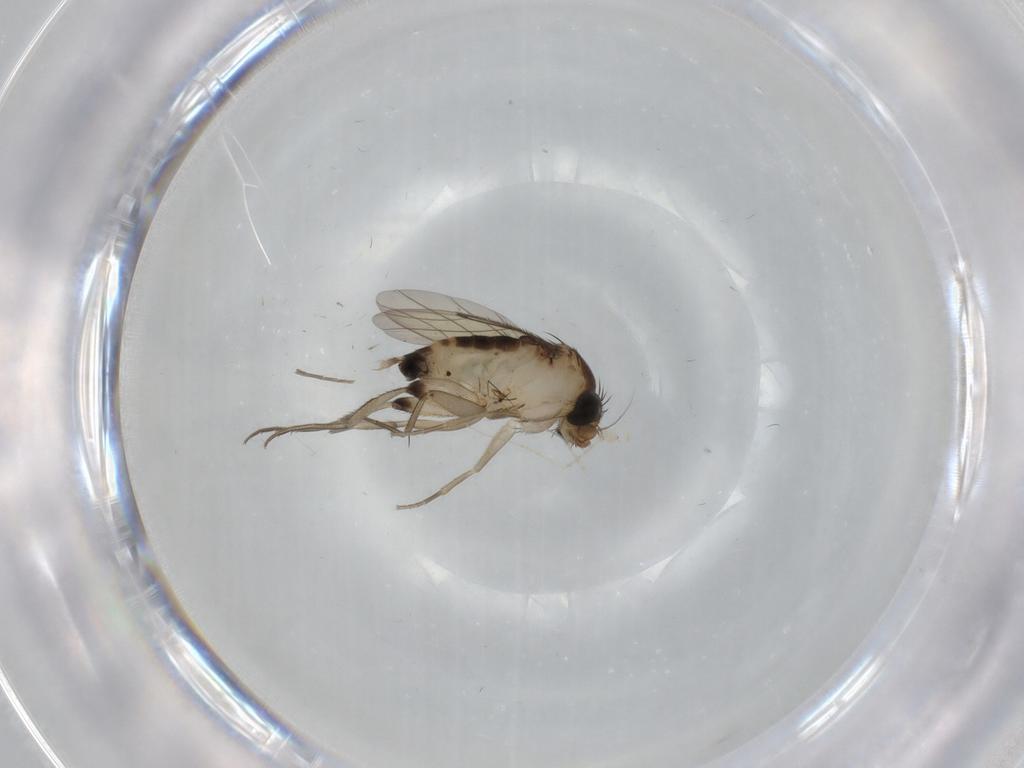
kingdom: Animalia
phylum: Arthropoda
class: Insecta
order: Diptera
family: Phoridae
